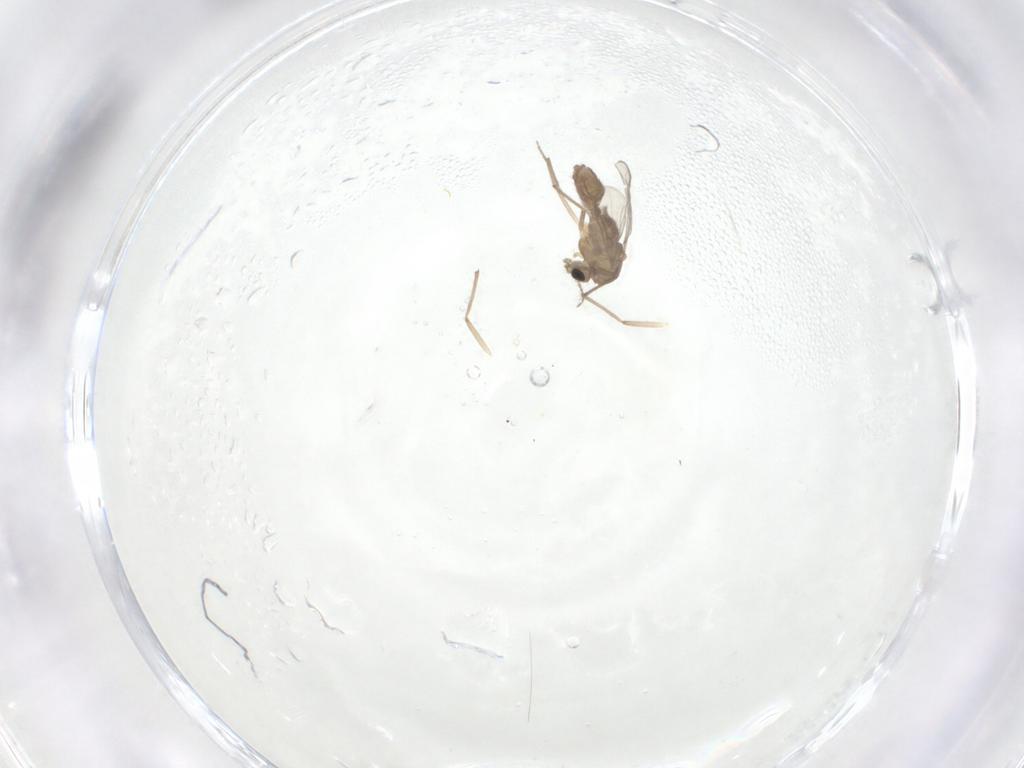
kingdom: Animalia
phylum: Arthropoda
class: Insecta
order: Diptera
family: Chironomidae
